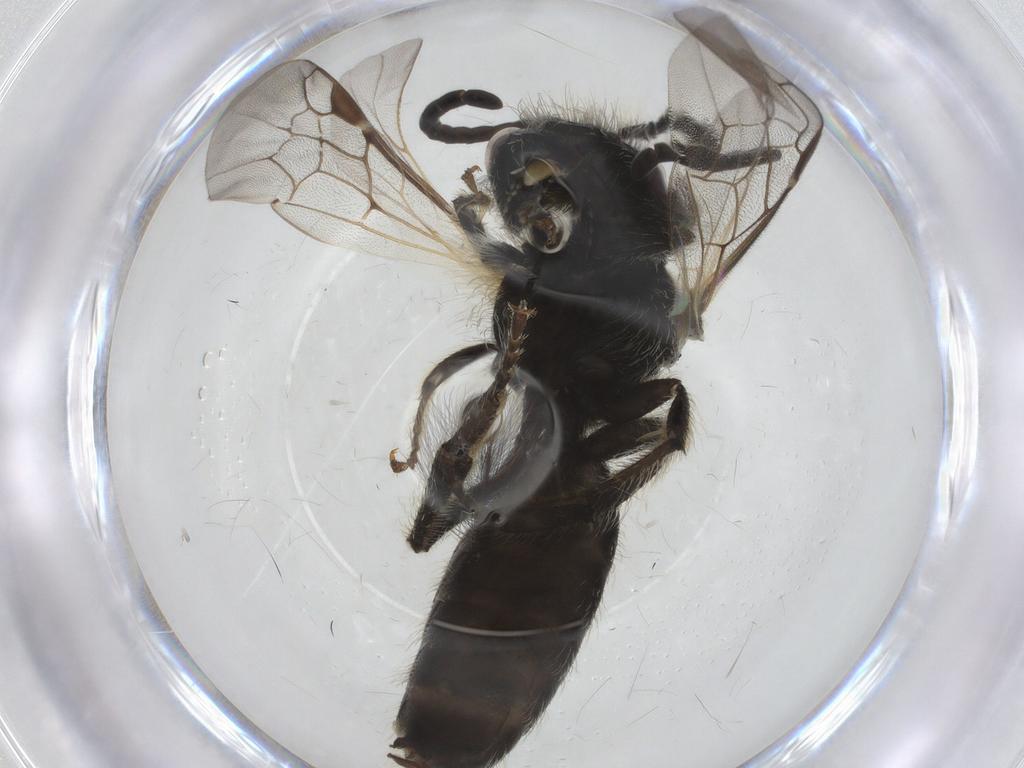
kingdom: Animalia
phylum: Arthropoda
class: Insecta
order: Hymenoptera
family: Andrenidae
